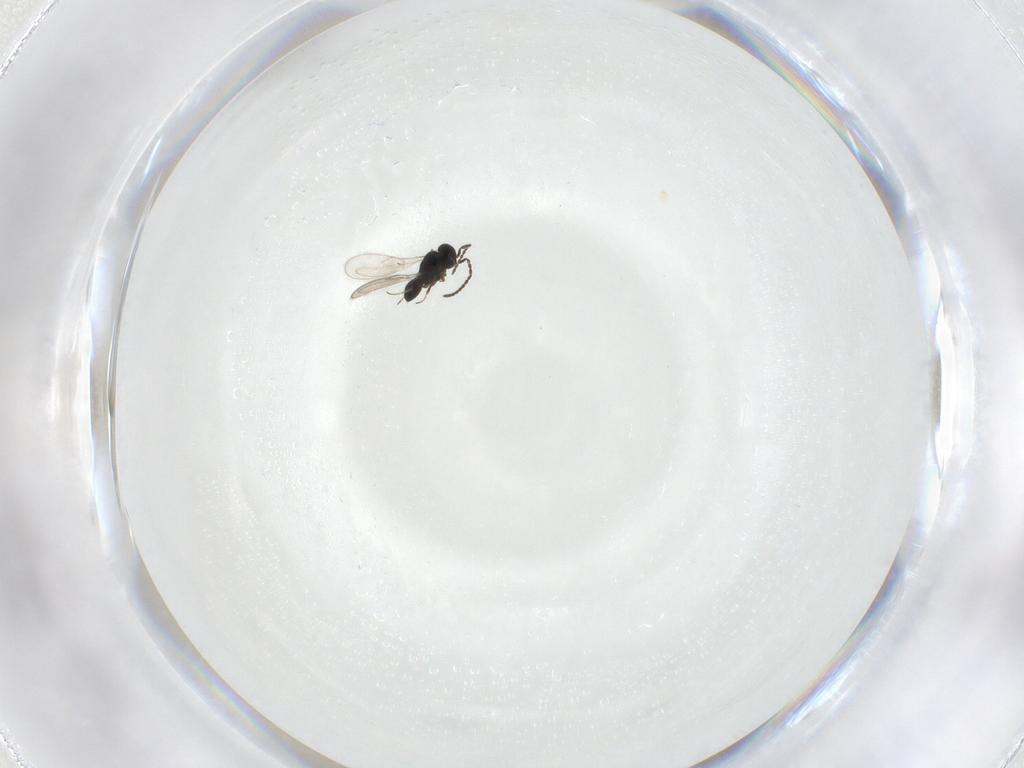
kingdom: Animalia
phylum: Arthropoda
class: Insecta
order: Hymenoptera
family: Scelionidae
